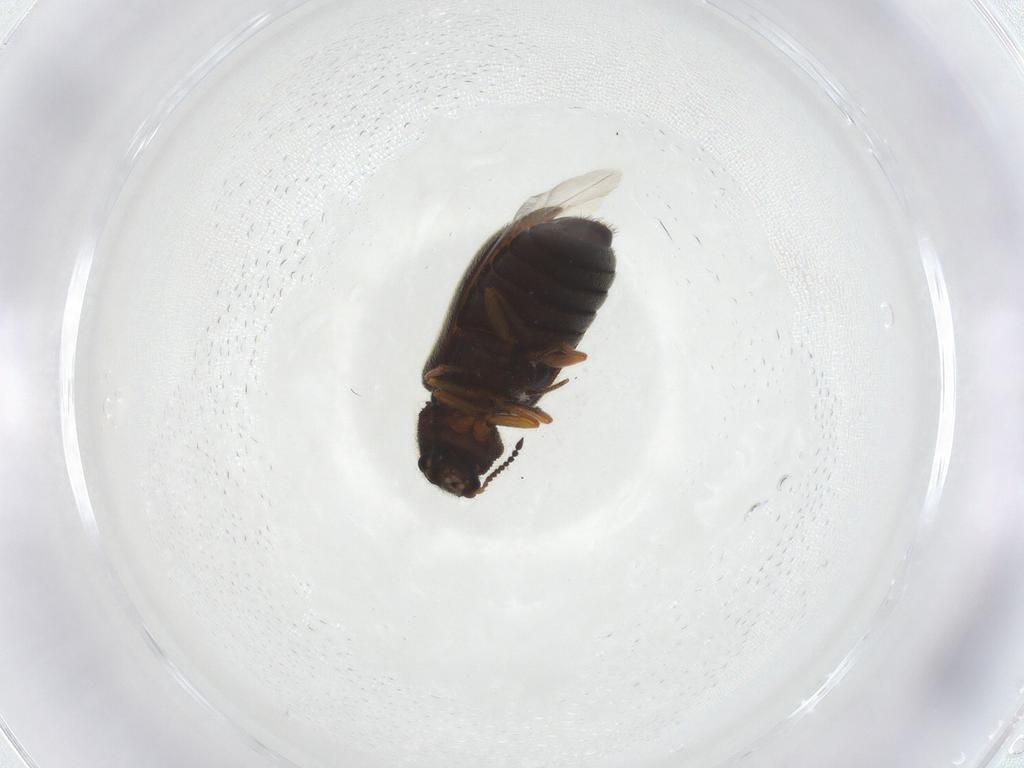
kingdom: Animalia
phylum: Arthropoda
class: Insecta
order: Coleoptera
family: Melyridae
